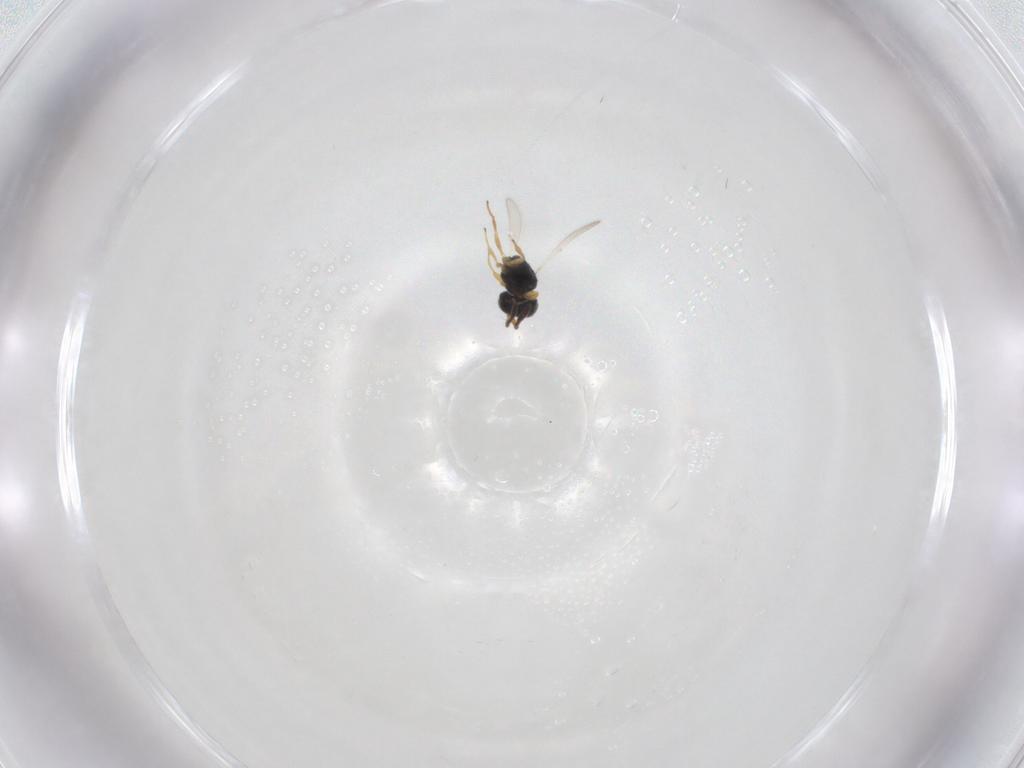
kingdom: Animalia
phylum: Arthropoda
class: Insecta
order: Hymenoptera
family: Scelionidae
